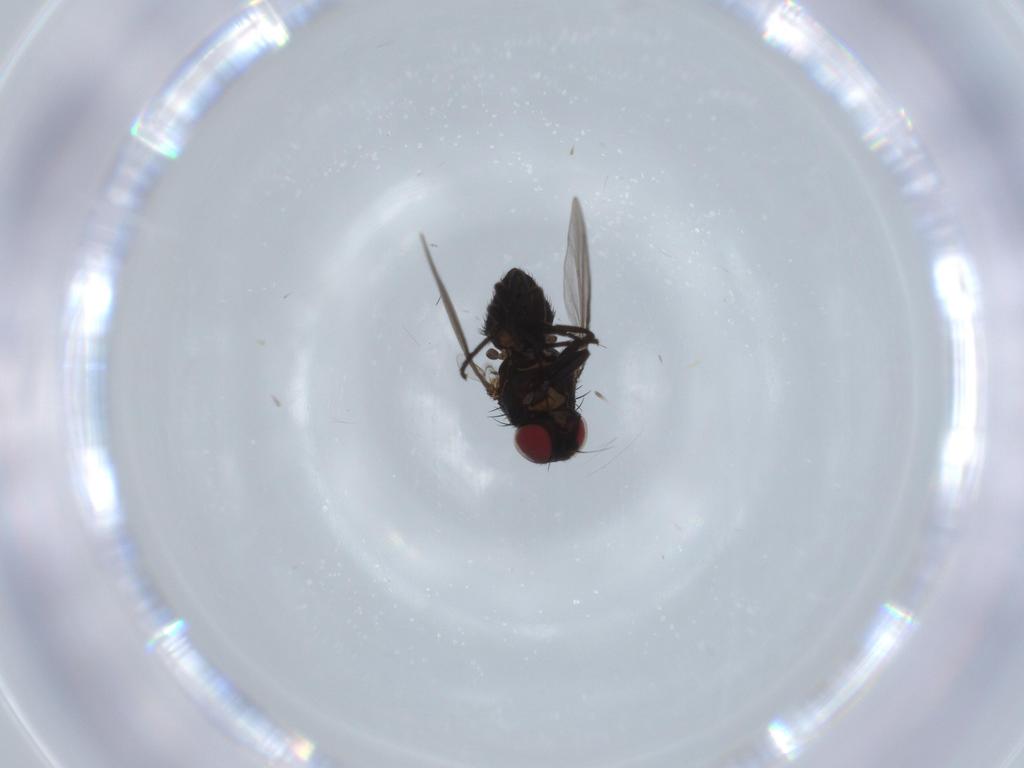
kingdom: Animalia
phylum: Arthropoda
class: Insecta
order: Diptera
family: Agromyzidae
